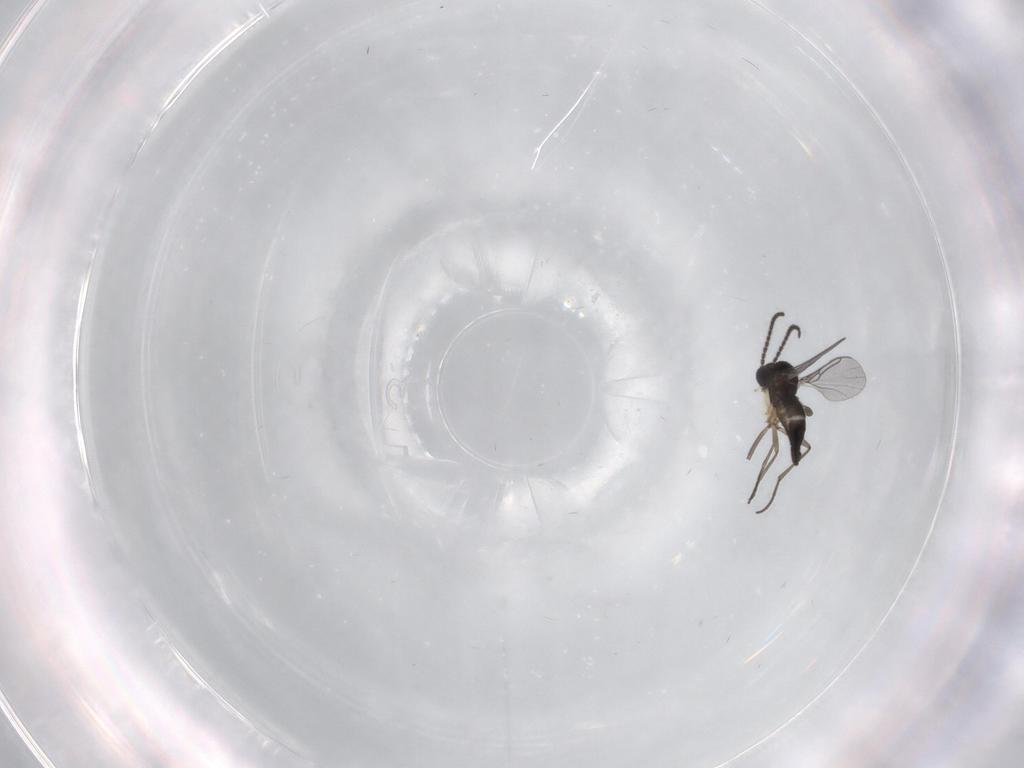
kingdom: Animalia
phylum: Arthropoda
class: Insecta
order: Diptera
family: Sciaridae
